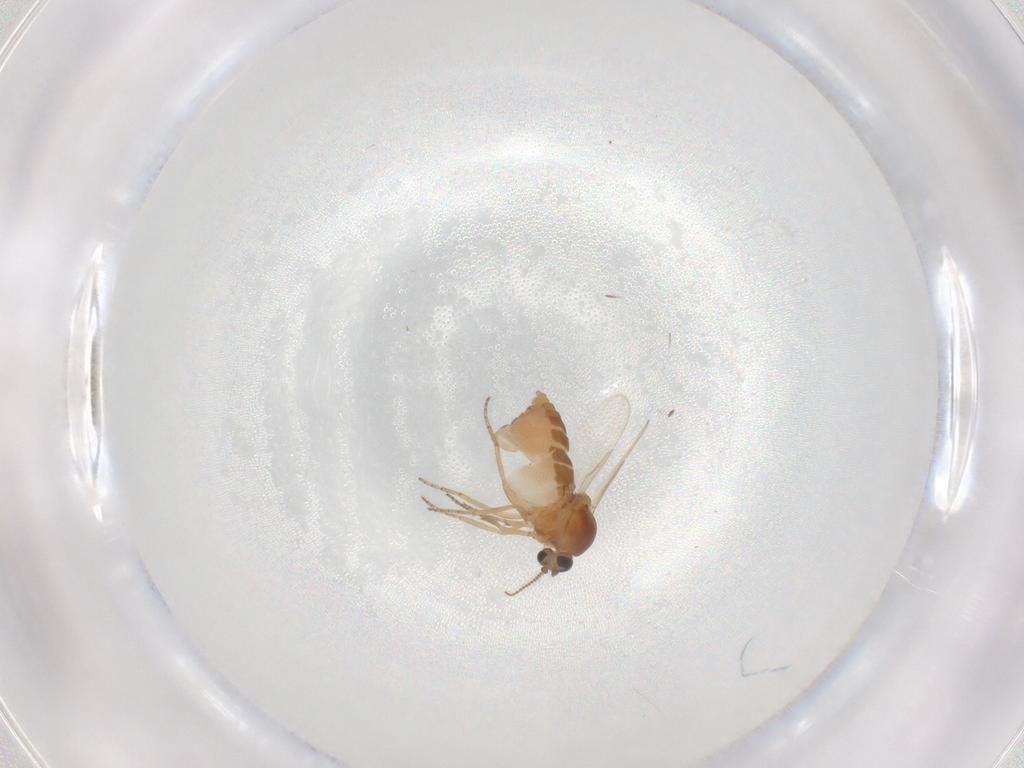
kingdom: Animalia
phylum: Arthropoda
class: Insecta
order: Diptera
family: Ceratopogonidae
